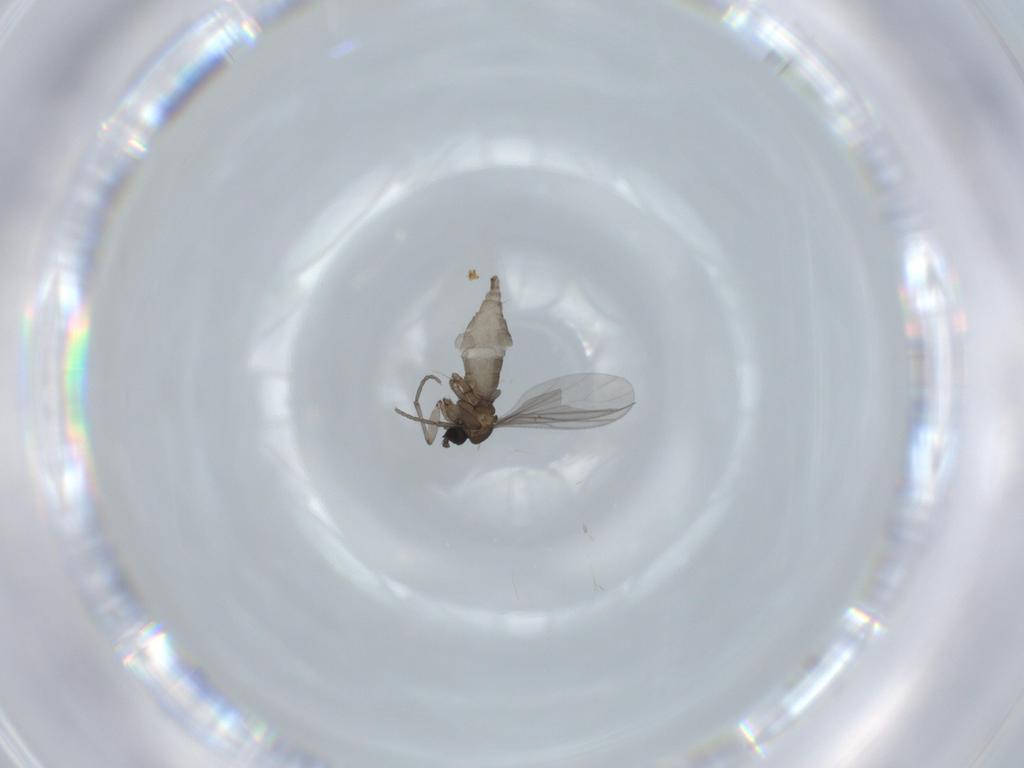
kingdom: Animalia
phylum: Arthropoda
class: Insecta
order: Diptera
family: Sciaridae
